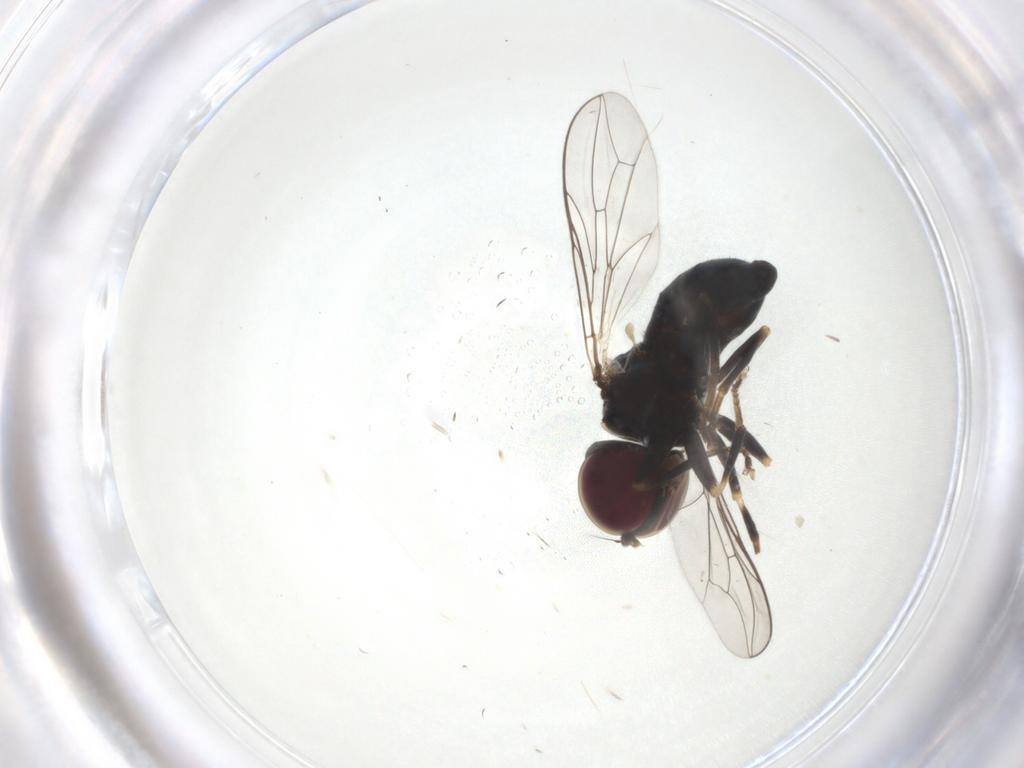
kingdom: Animalia
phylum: Arthropoda
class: Insecta
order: Diptera
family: Pipunculidae
